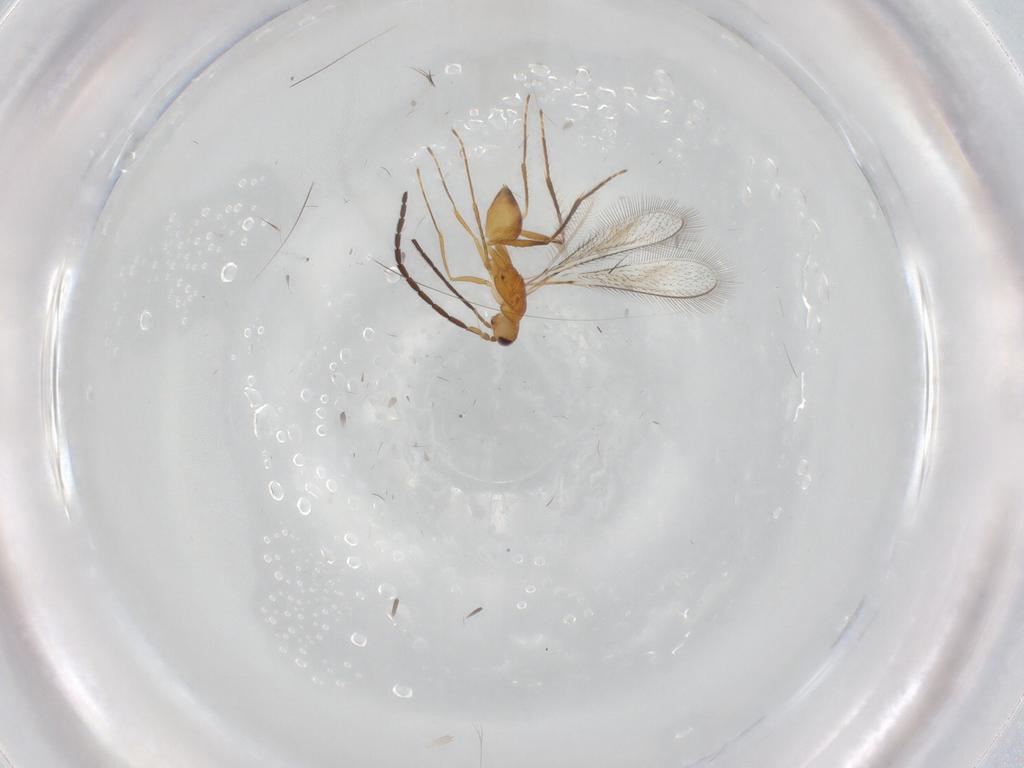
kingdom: Animalia
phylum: Arthropoda
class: Insecta
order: Hymenoptera
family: Mymaridae
